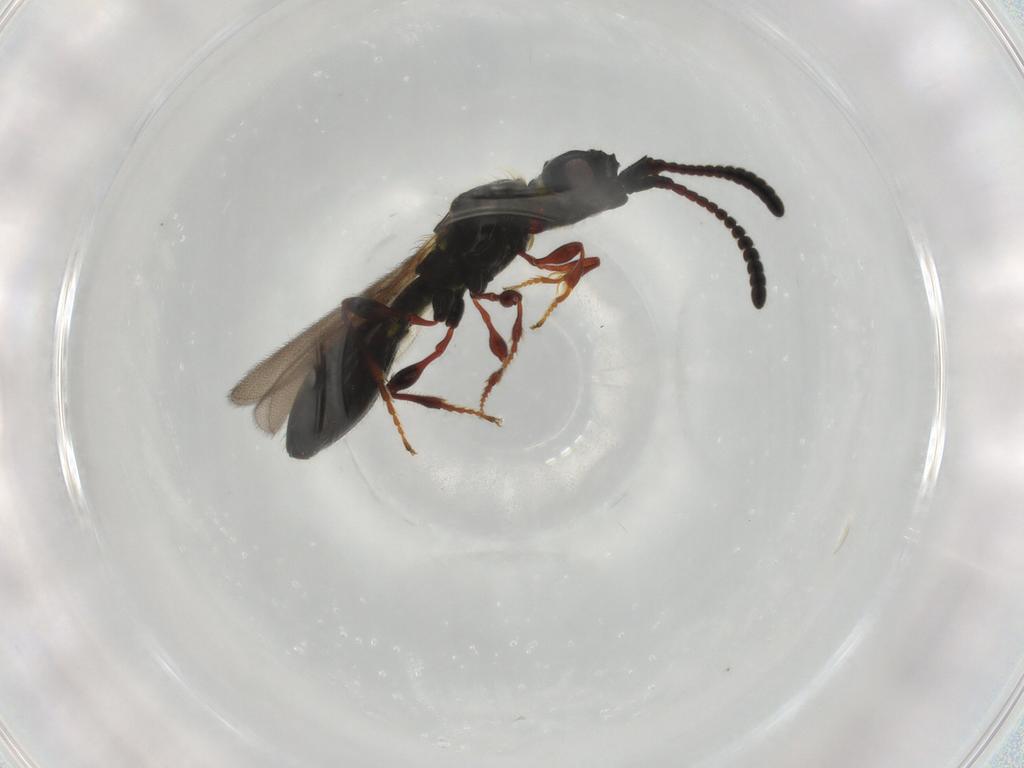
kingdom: Animalia
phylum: Arthropoda
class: Insecta
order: Hymenoptera
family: Diapriidae
